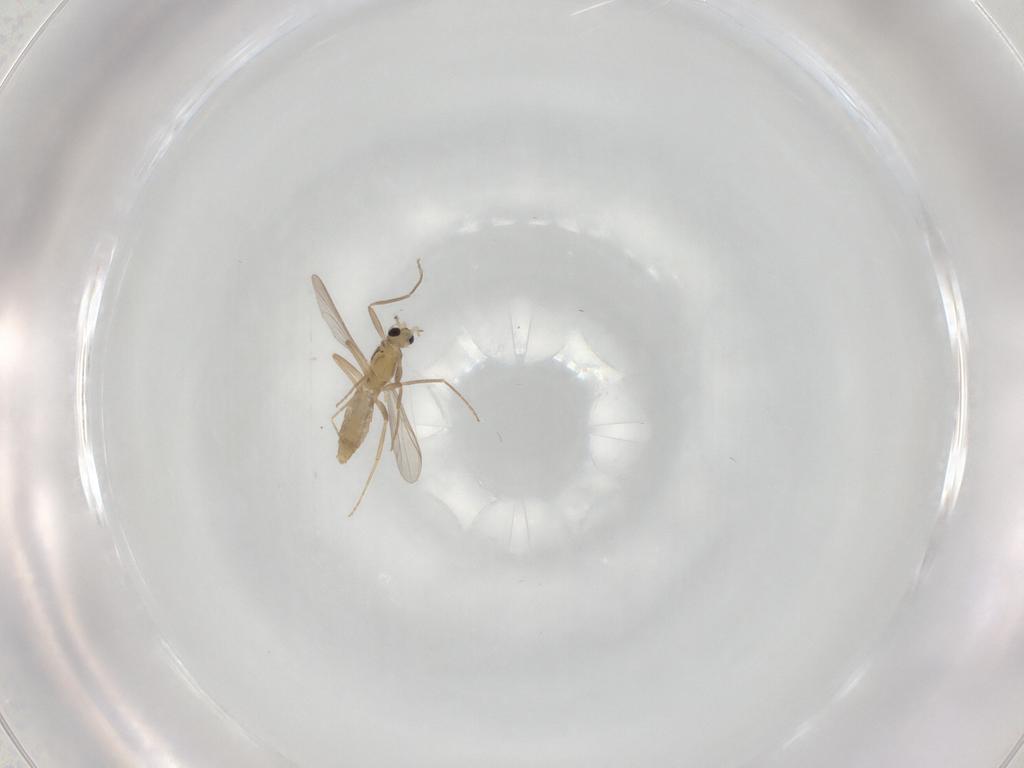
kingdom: Animalia
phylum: Arthropoda
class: Insecta
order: Diptera
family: Chironomidae
